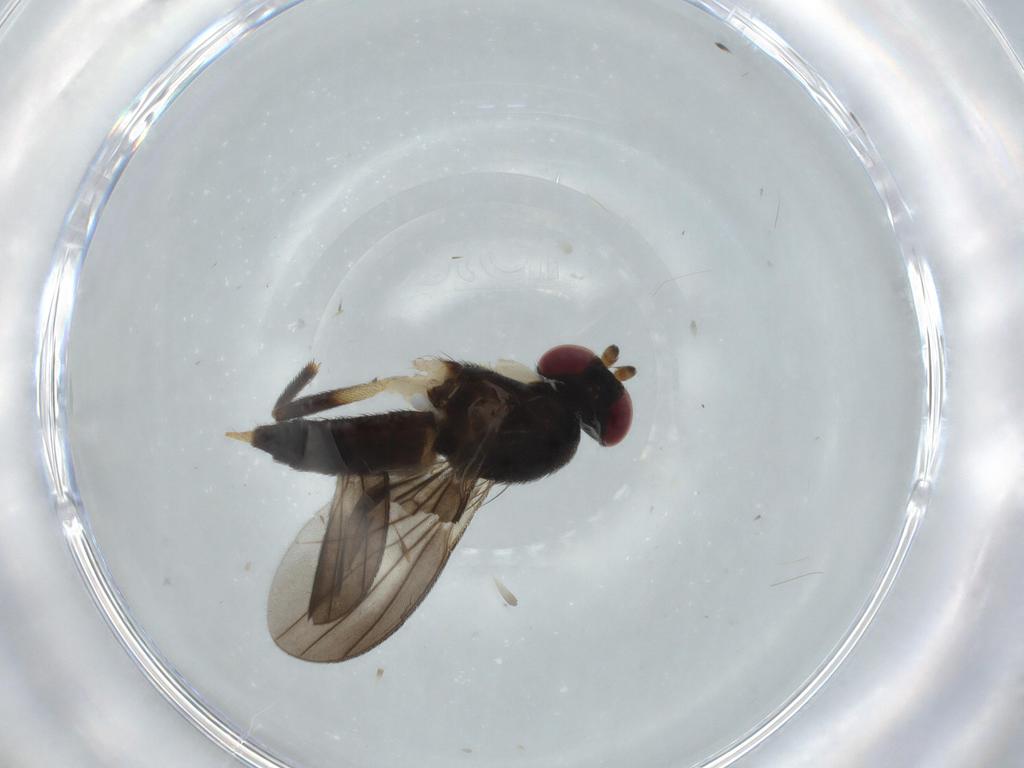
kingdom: Animalia
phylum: Arthropoda
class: Insecta
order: Diptera
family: Clusiidae
